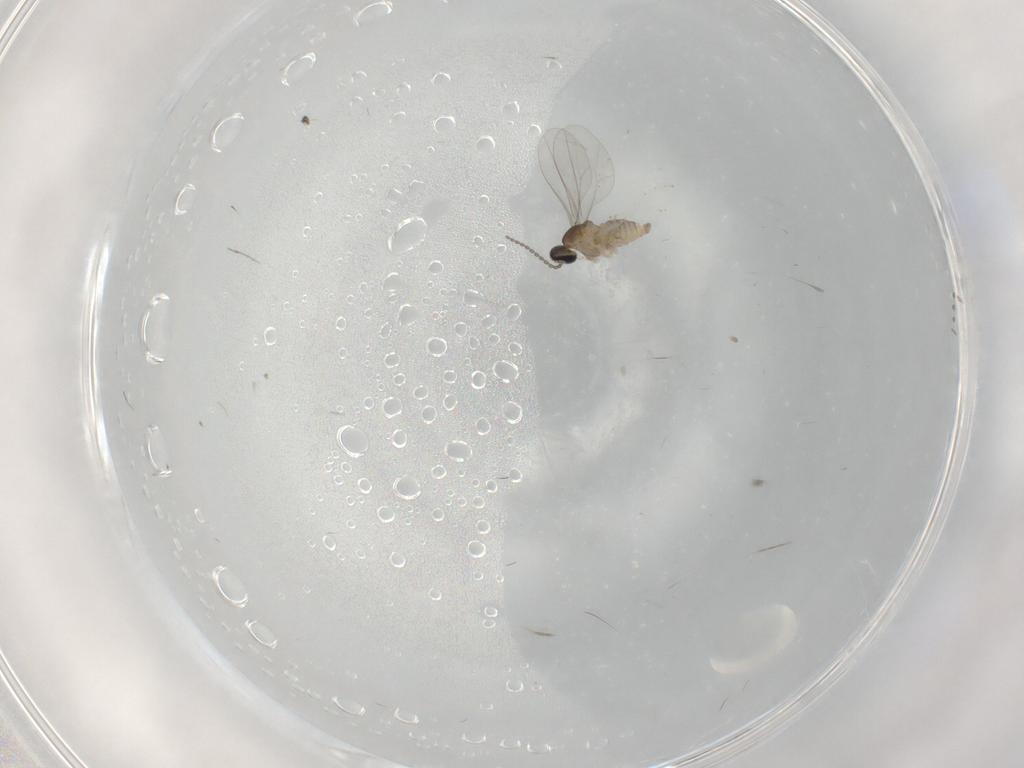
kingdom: Animalia
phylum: Arthropoda
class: Insecta
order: Diptera
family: Cecidomyiidae
